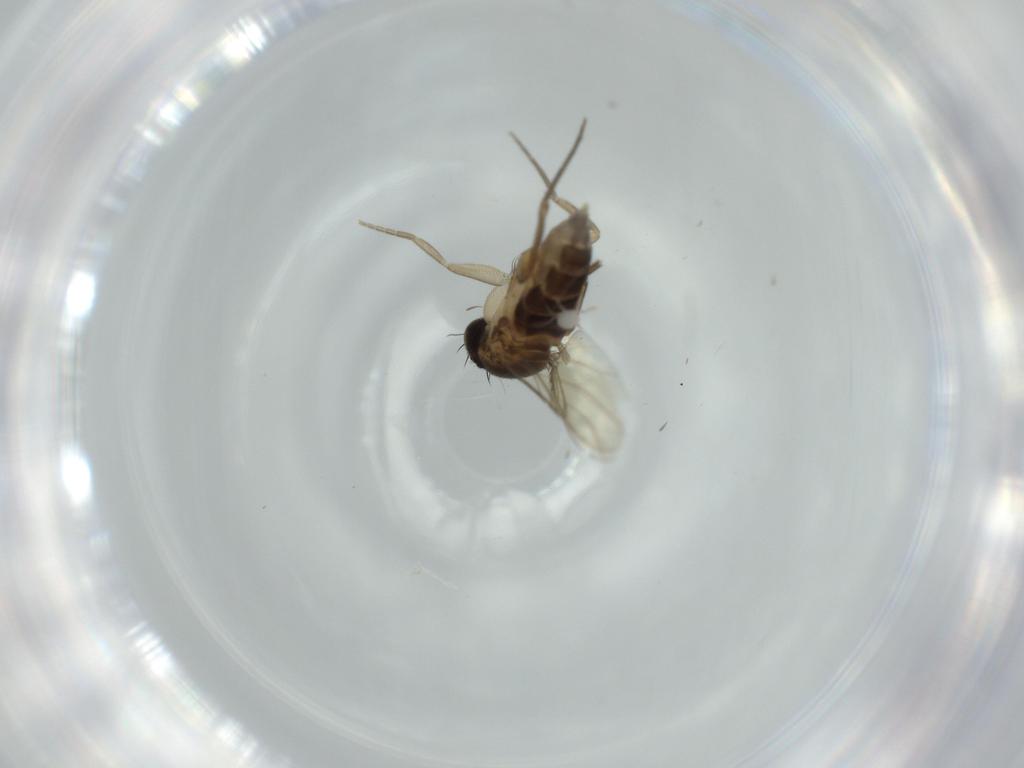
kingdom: Animalia
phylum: Arthropoda
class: Insecta
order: Diptera
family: Phoridae
